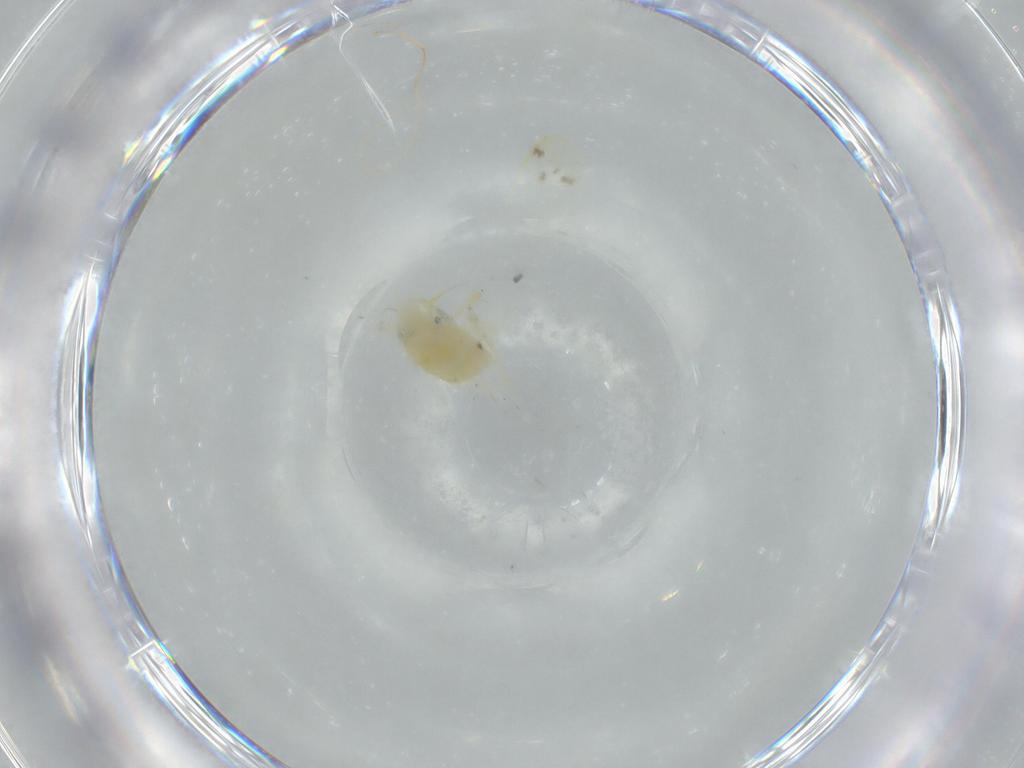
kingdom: Animalia
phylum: Arthropoda
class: Insecta
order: Hemiptera
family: Cicadellidae
